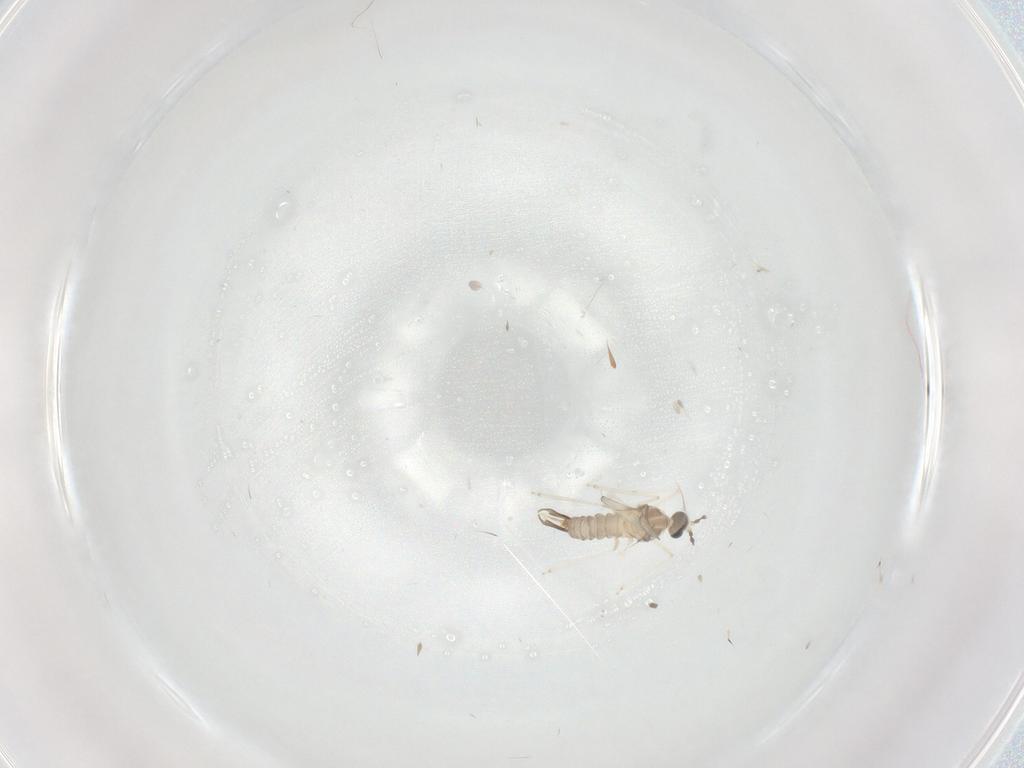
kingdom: Animalia
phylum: Arthropoda
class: Insecta
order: Diptera
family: Cecidomyiidae
